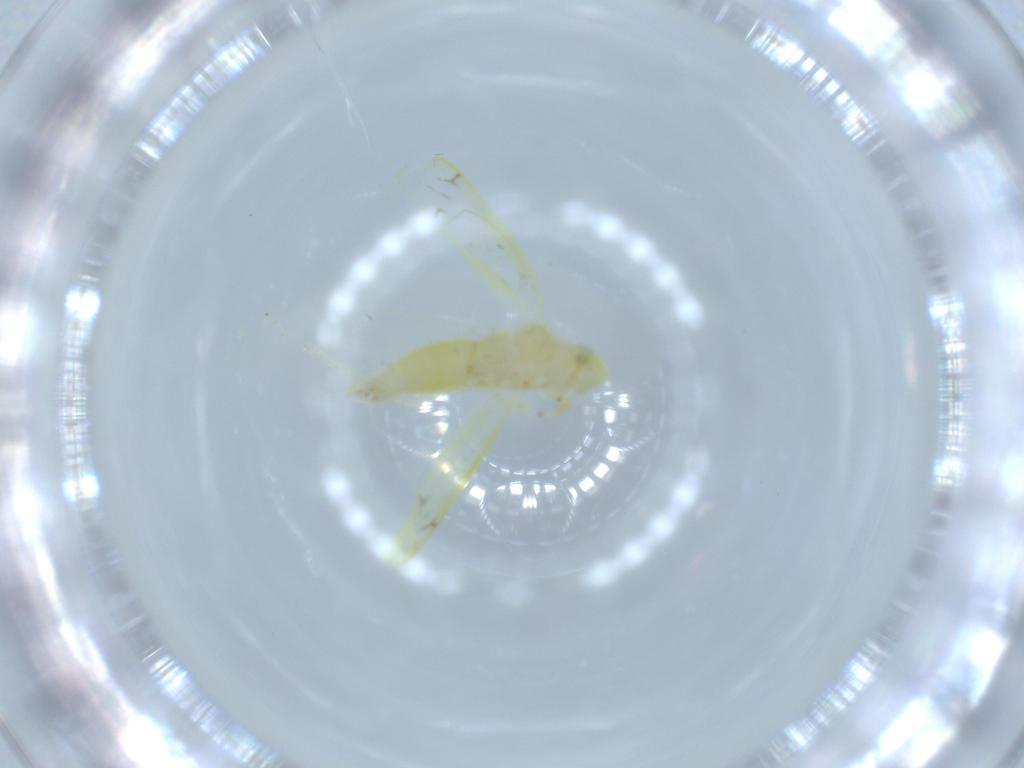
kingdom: Animalia
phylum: Arthropoda
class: Insecta
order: Hemiptera
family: Cicadellidae
